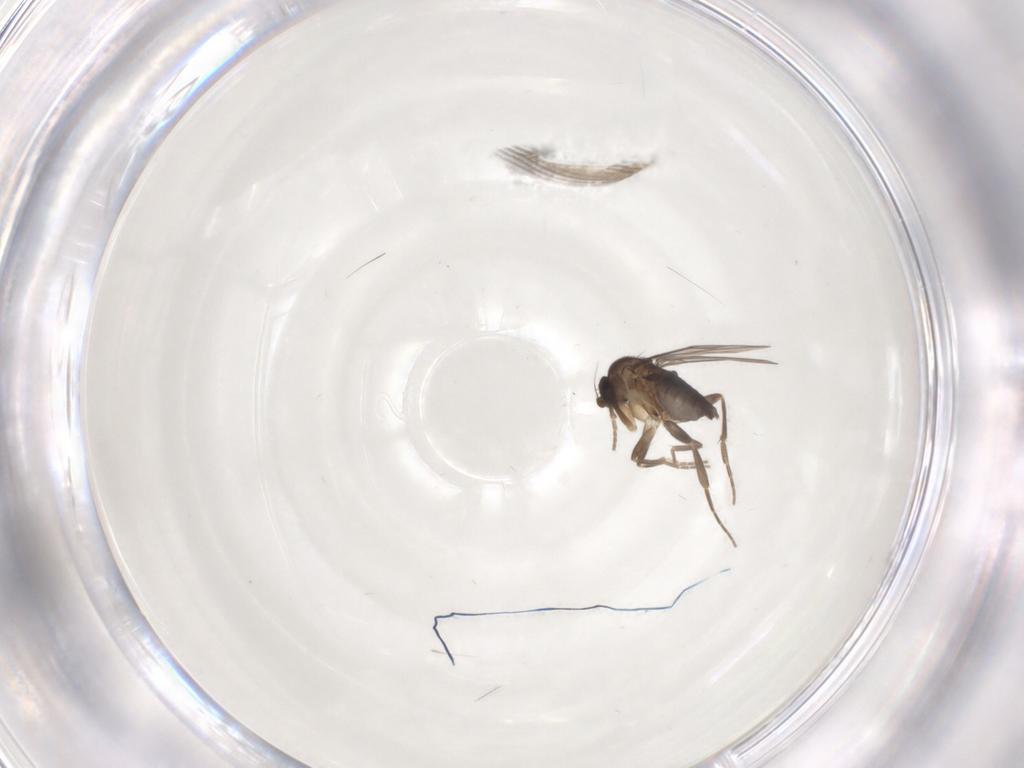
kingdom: Animalia
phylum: Arthropoda
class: Insecta
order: Diptera
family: Phoridae
